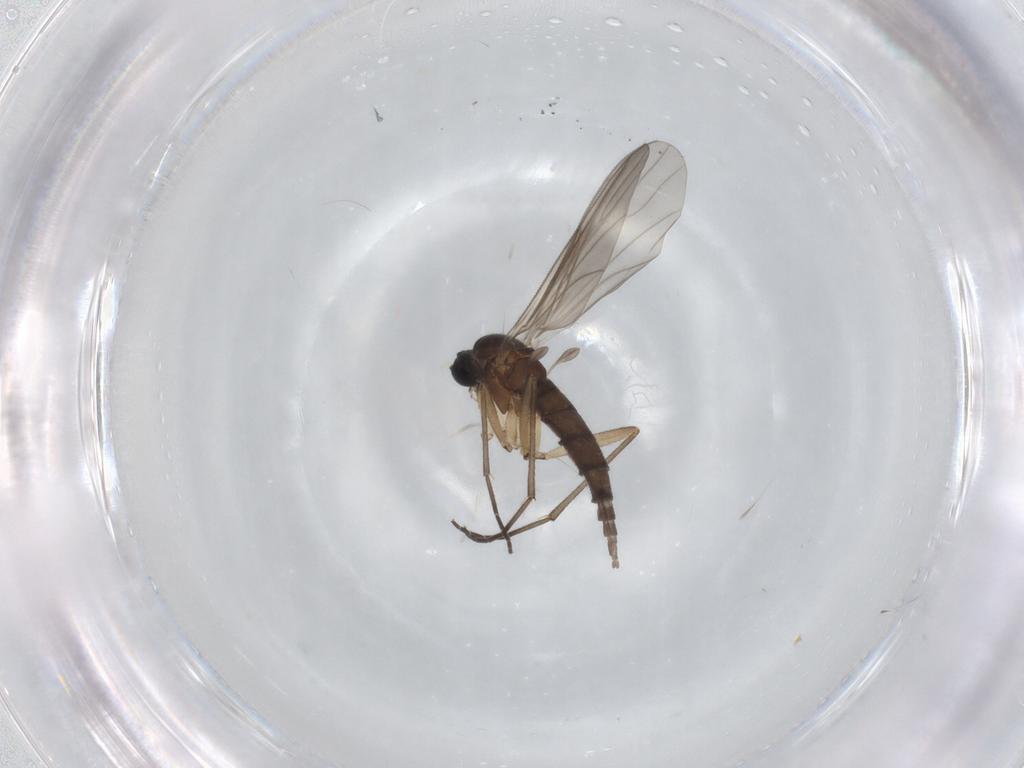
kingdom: Animalia
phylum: Arthropoda
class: Insecta
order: Diptera
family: Sciaridae
